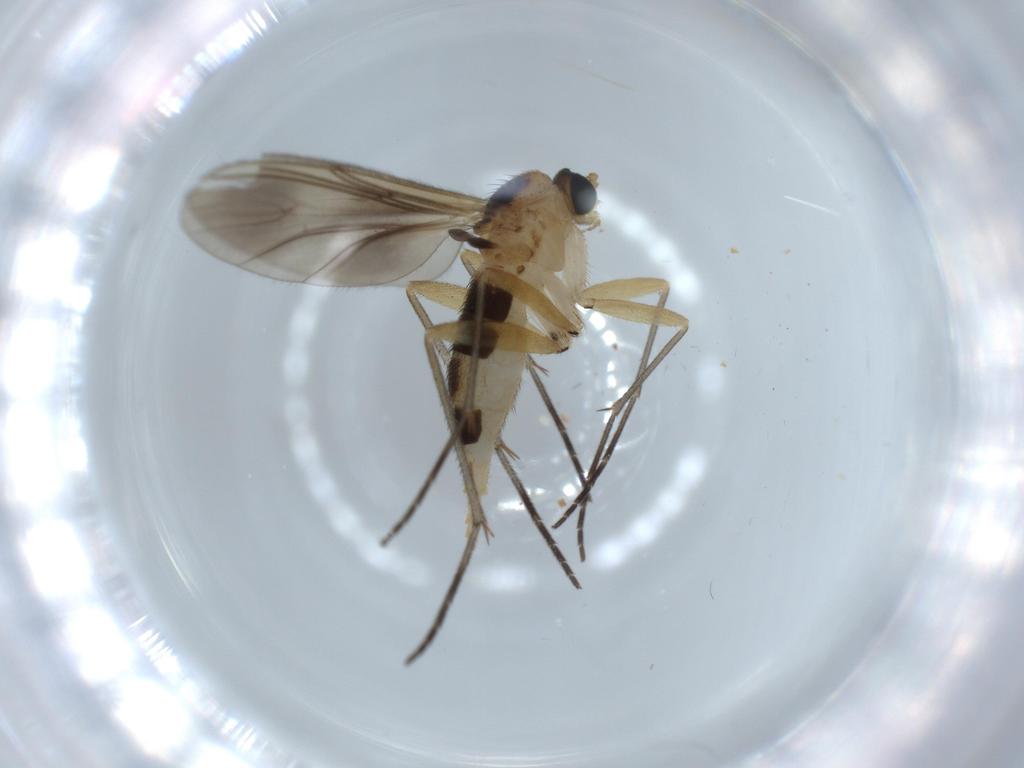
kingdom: Animalia
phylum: Arthropoda
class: Insecta
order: Diptera
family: Sciaridae
